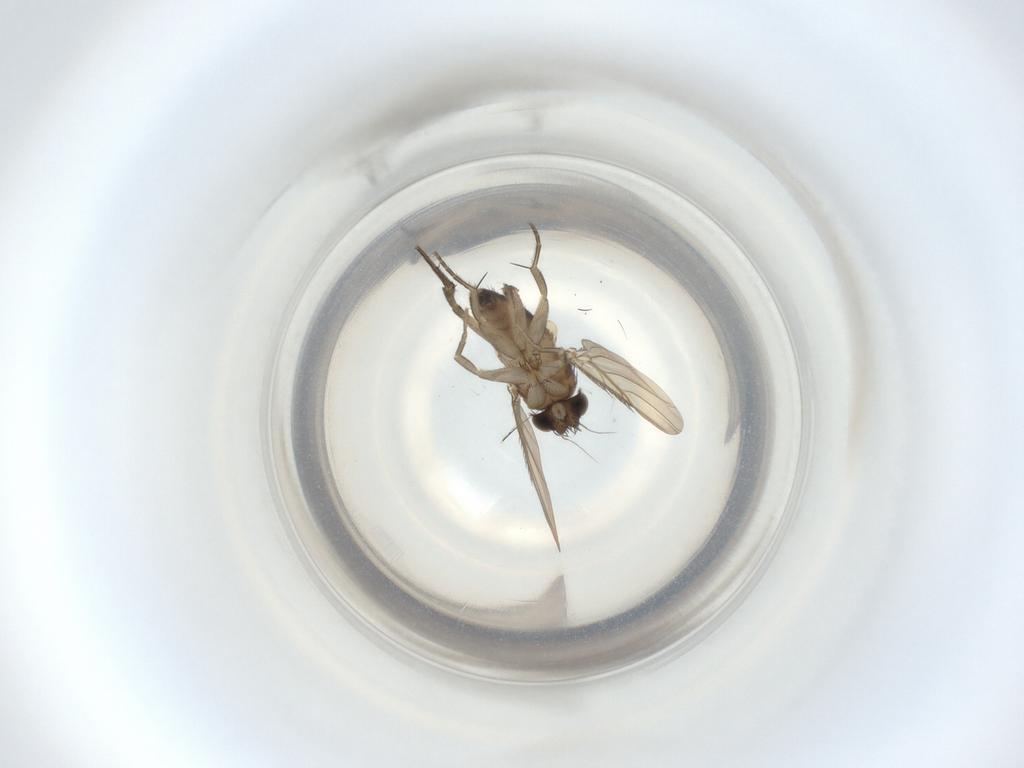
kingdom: Animalia
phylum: Arthropoda
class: Insecta
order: Diptera
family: Phoridae
